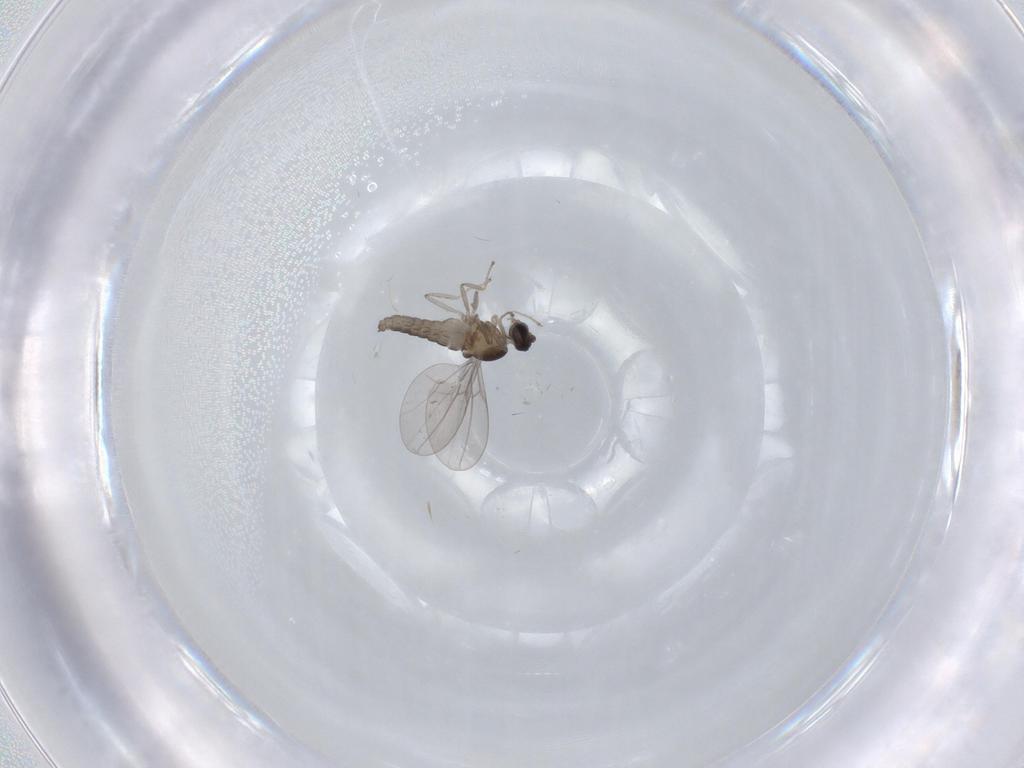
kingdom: Animalia
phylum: Arthropoda
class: Insecta
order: Diptera
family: Cecidomyiidae
